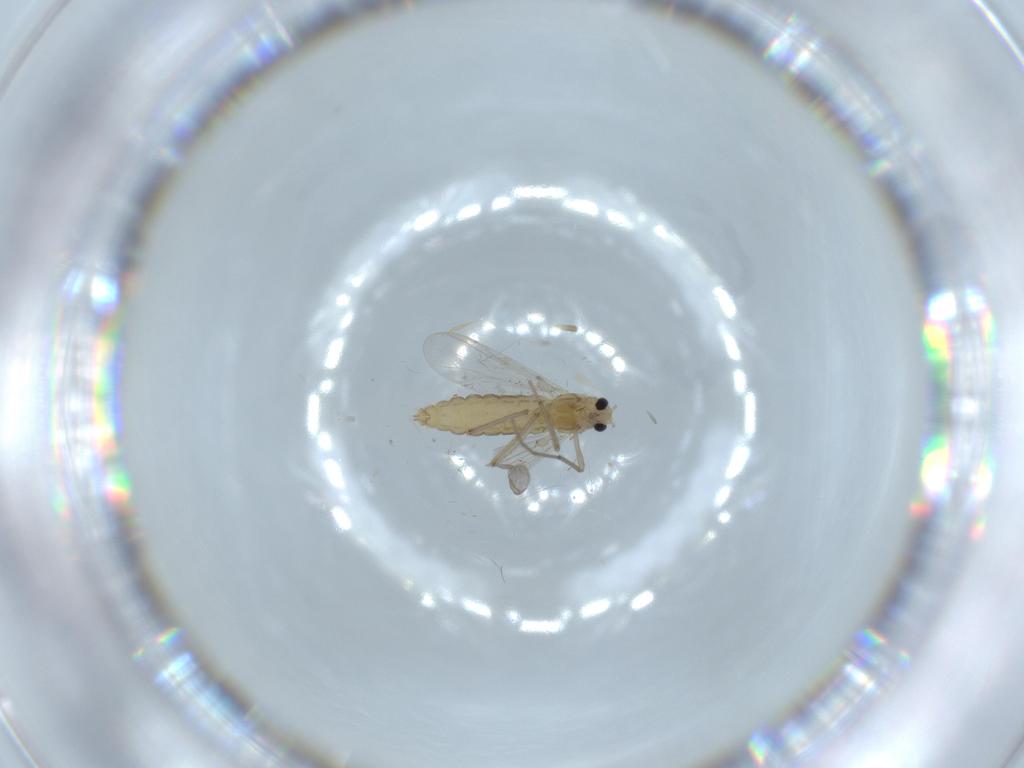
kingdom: Animalia
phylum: Arthropoda
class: Insecta
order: Diptera
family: Chironomidae
